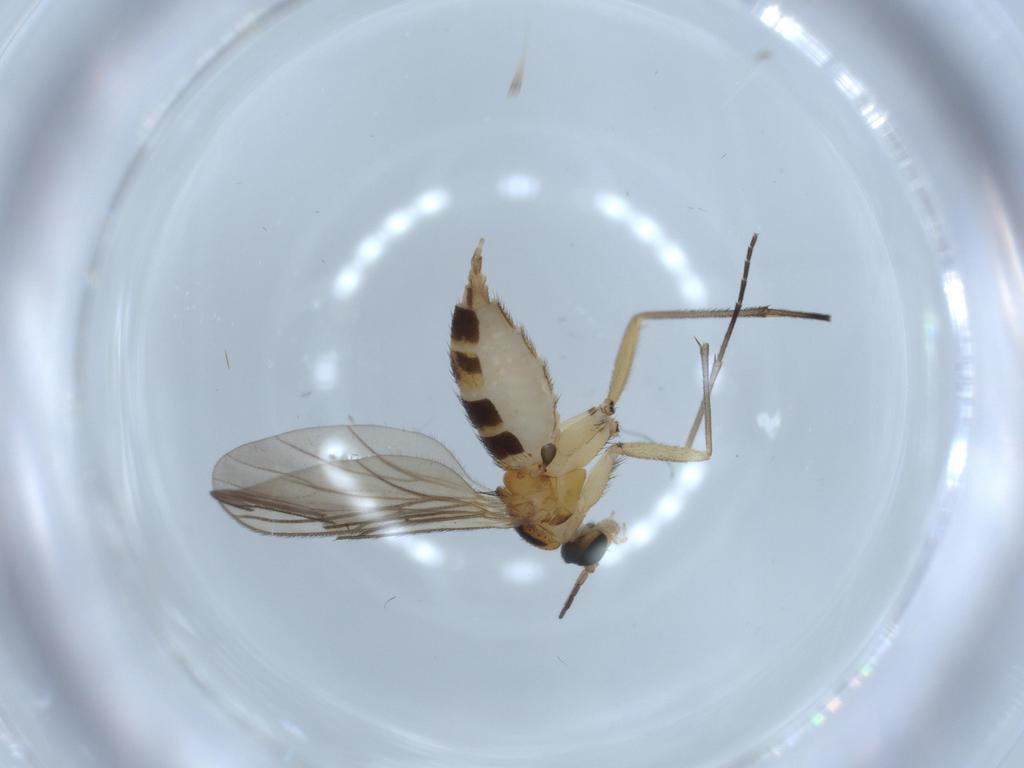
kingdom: Animalia
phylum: Arthropoda
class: Insecta
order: Diptera
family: Sciaridae
